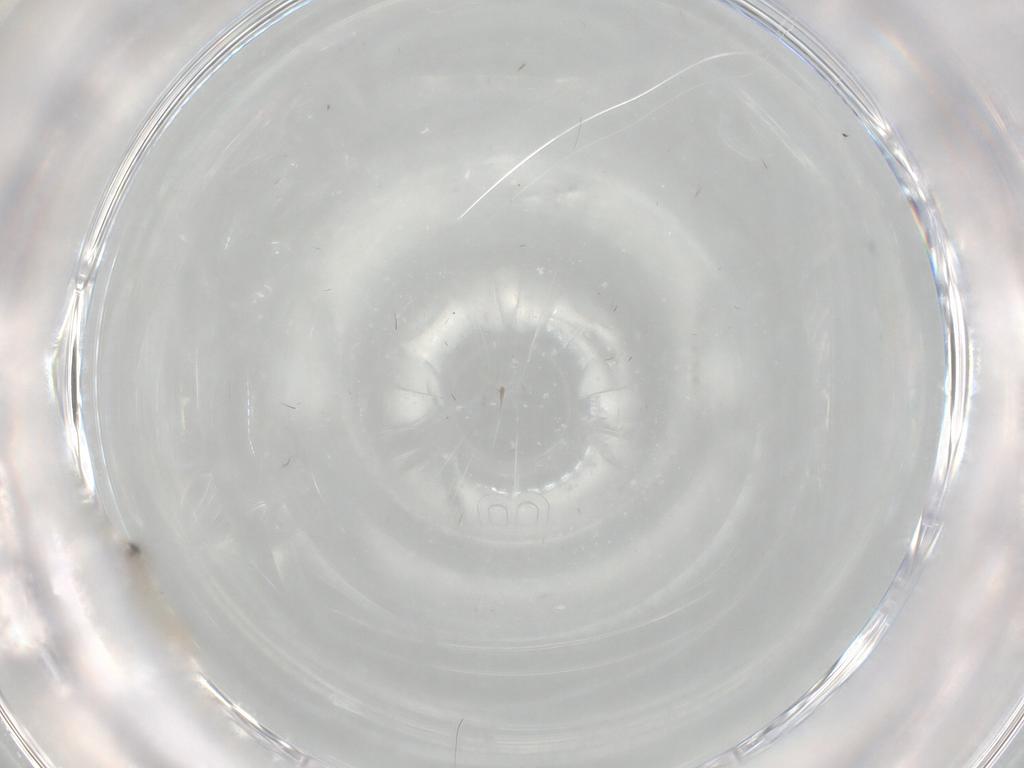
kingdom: Animalia
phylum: Arthropoda
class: Insecta
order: Diptera
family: Cecidomyiidae
